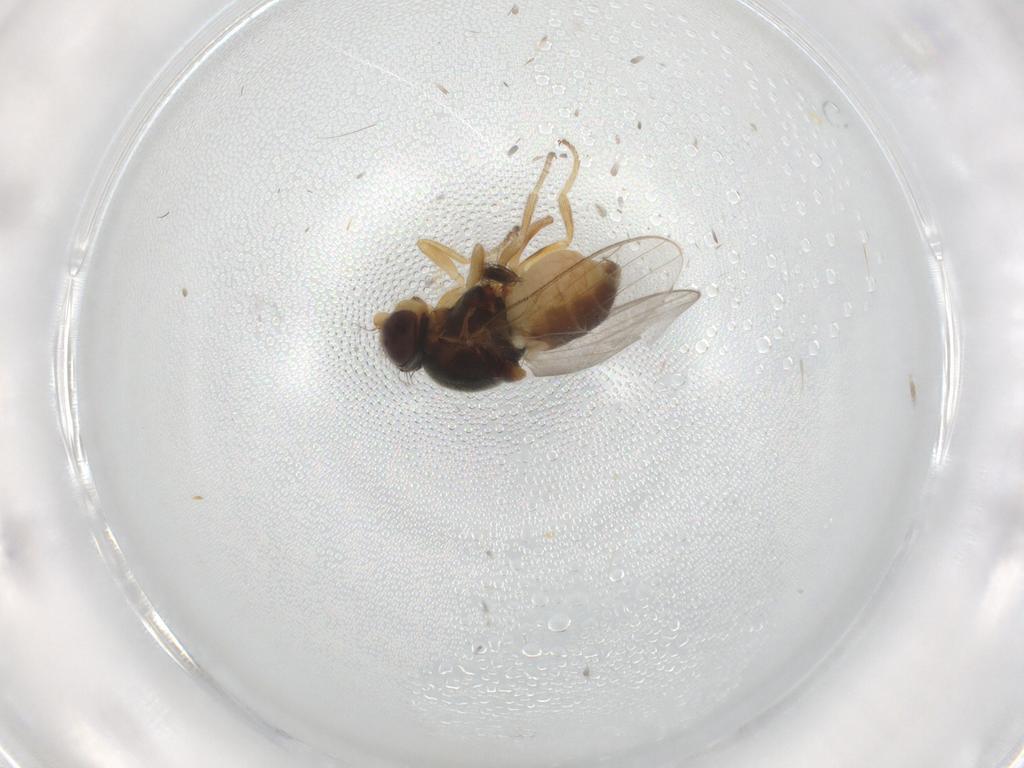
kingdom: Animalia
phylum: Arthropoda
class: Insecta
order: Diptera
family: Chloropidae
